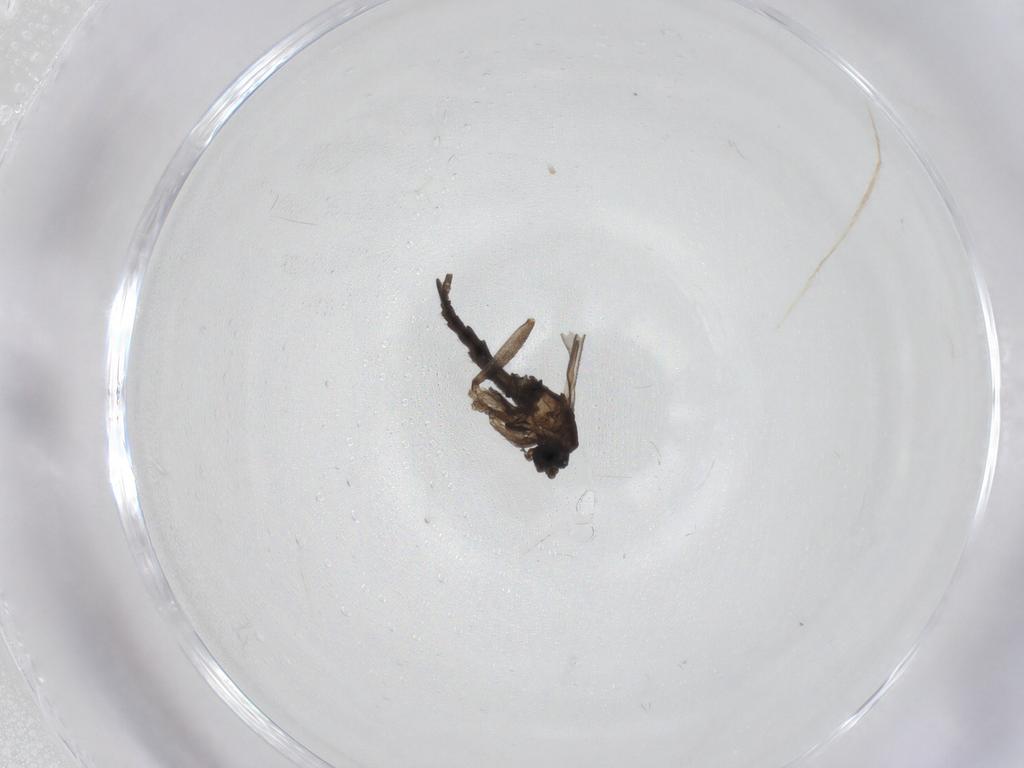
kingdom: Animalia
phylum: Arthropoda
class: Insecta
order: Diptera
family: Sciaridae
